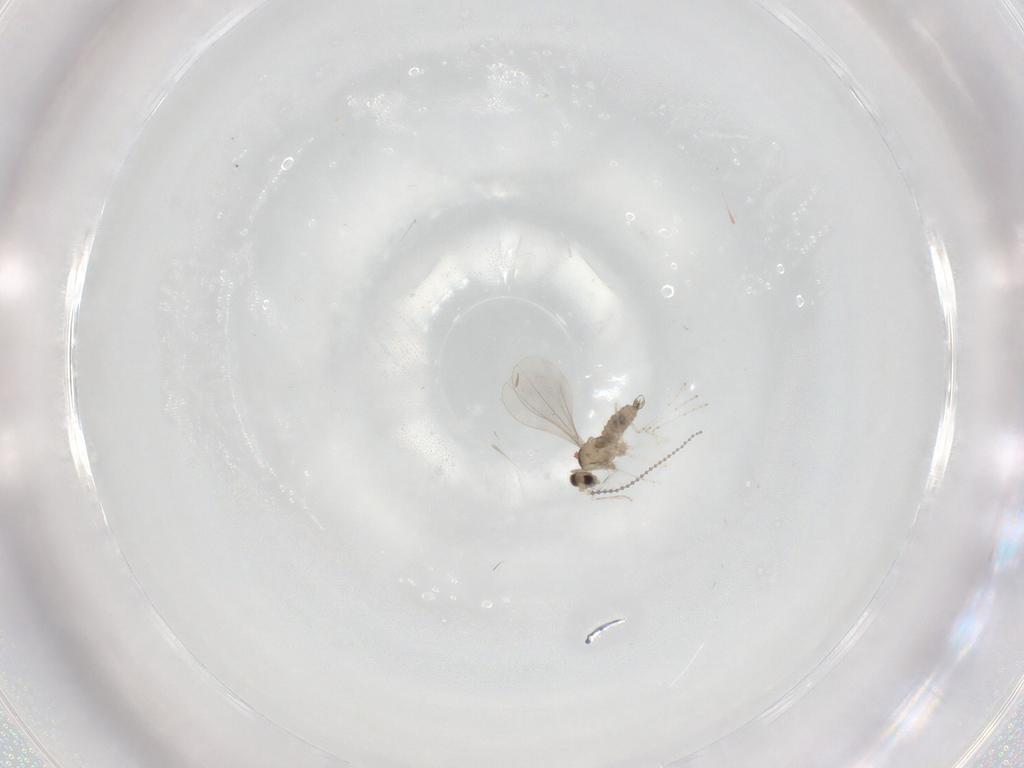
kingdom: Animalia
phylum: Arthropoda
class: Insecta
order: Diptera
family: Cecidomyiidae
